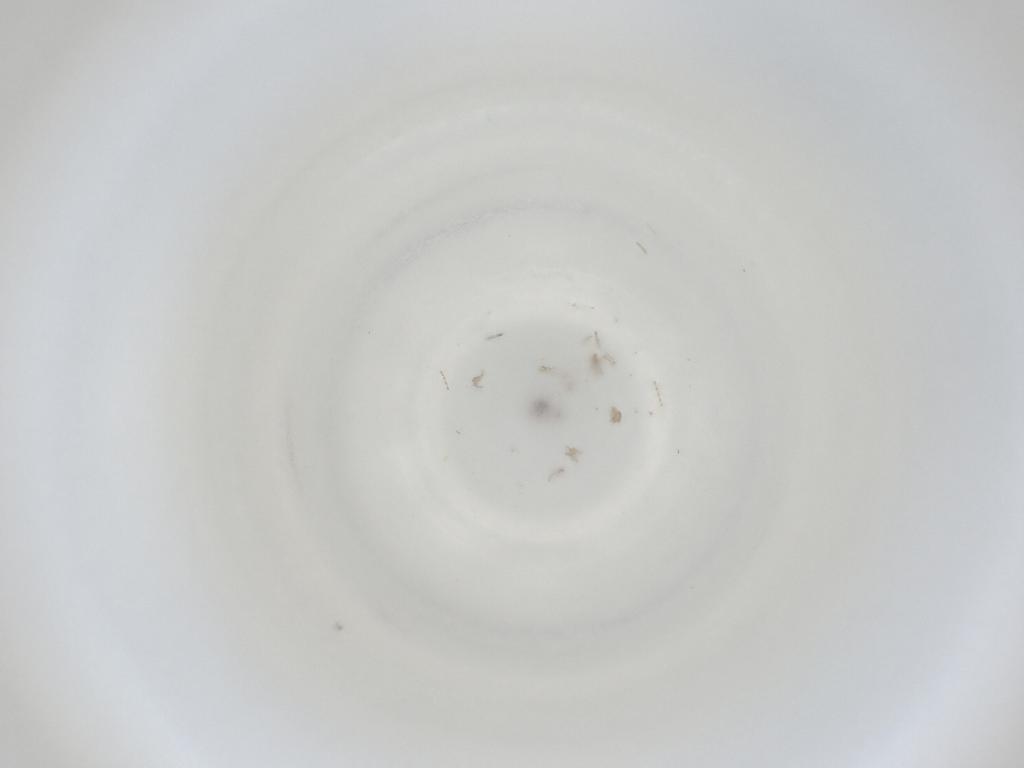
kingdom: Animalia
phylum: Arthropoda
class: Insecta
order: Diptera
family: Cecidomyiidae
